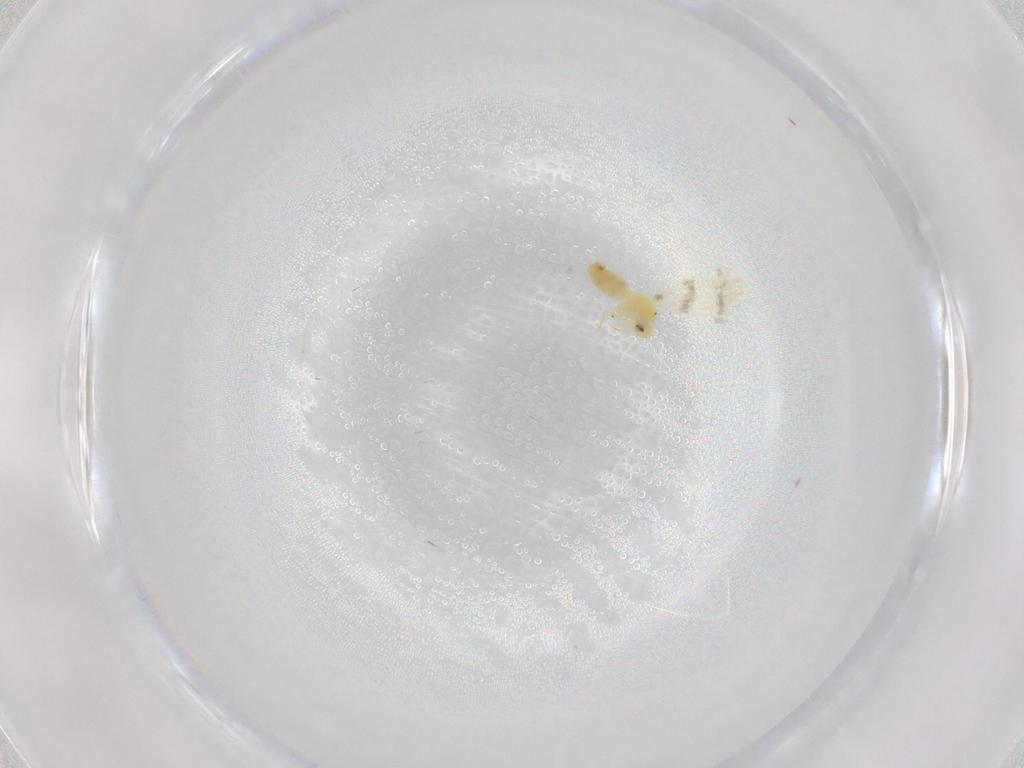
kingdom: Animalia
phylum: Arthropoda
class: Insecta
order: Hemiptera
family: Aleyrodidae
